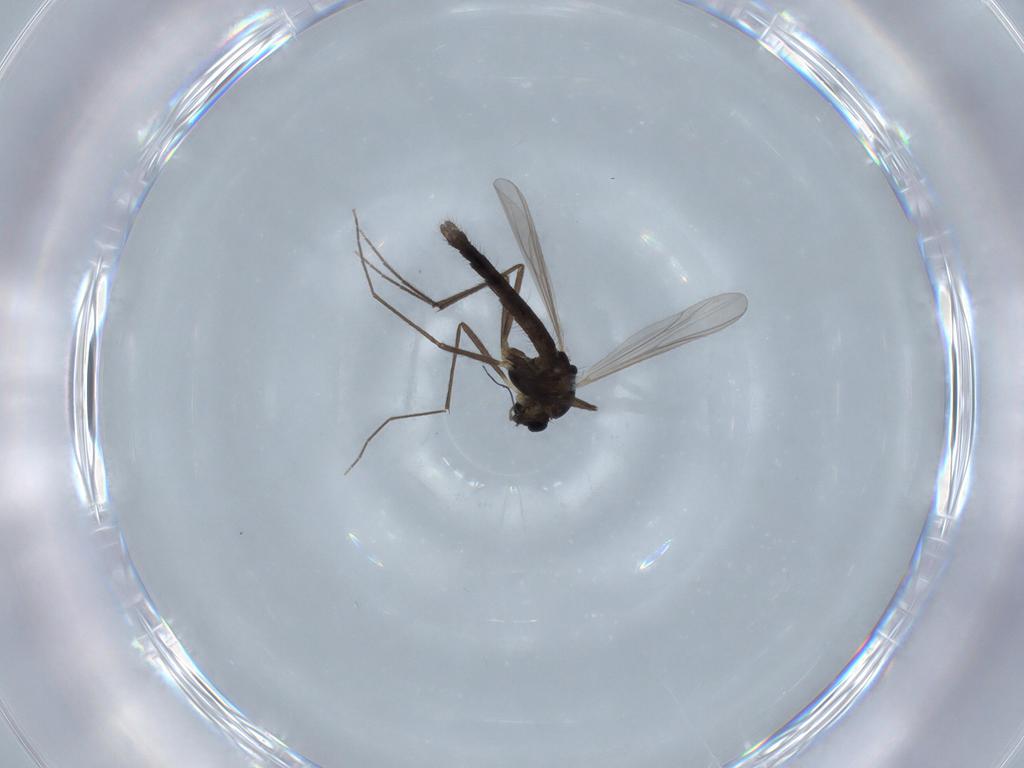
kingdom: Animalia
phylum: Arthropoda
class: Insecta
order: Diptera
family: Chironomidae
